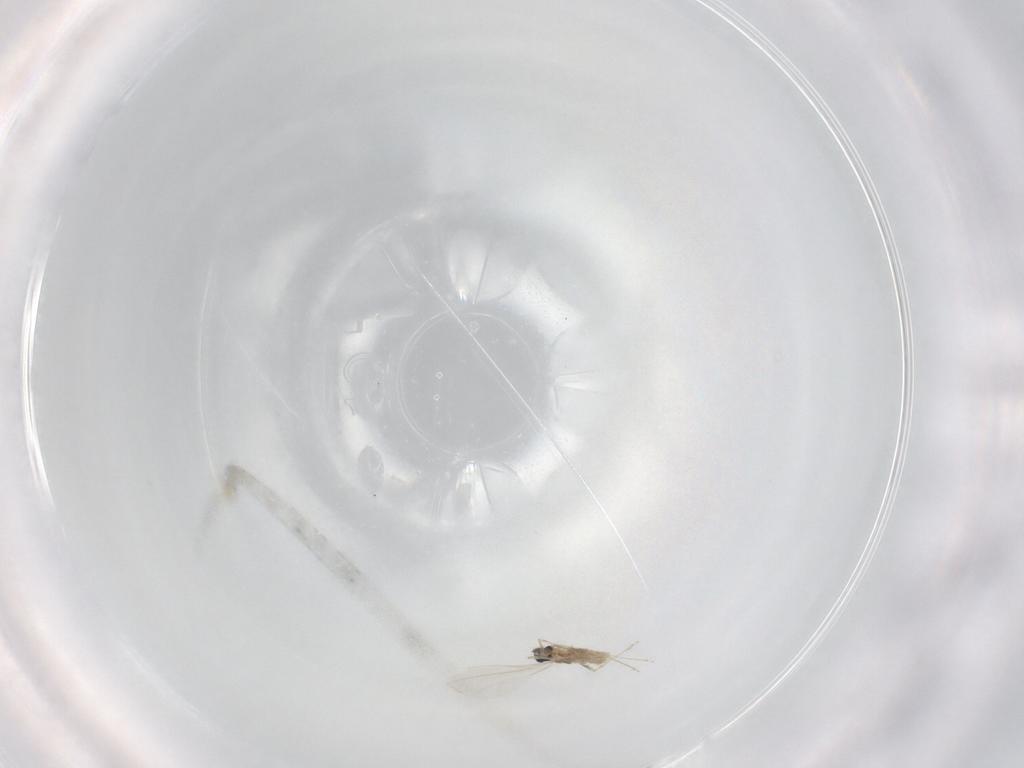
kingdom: Animalia
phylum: Arthropoda
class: Insecta
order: Diptera
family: Cecidomyiidae
